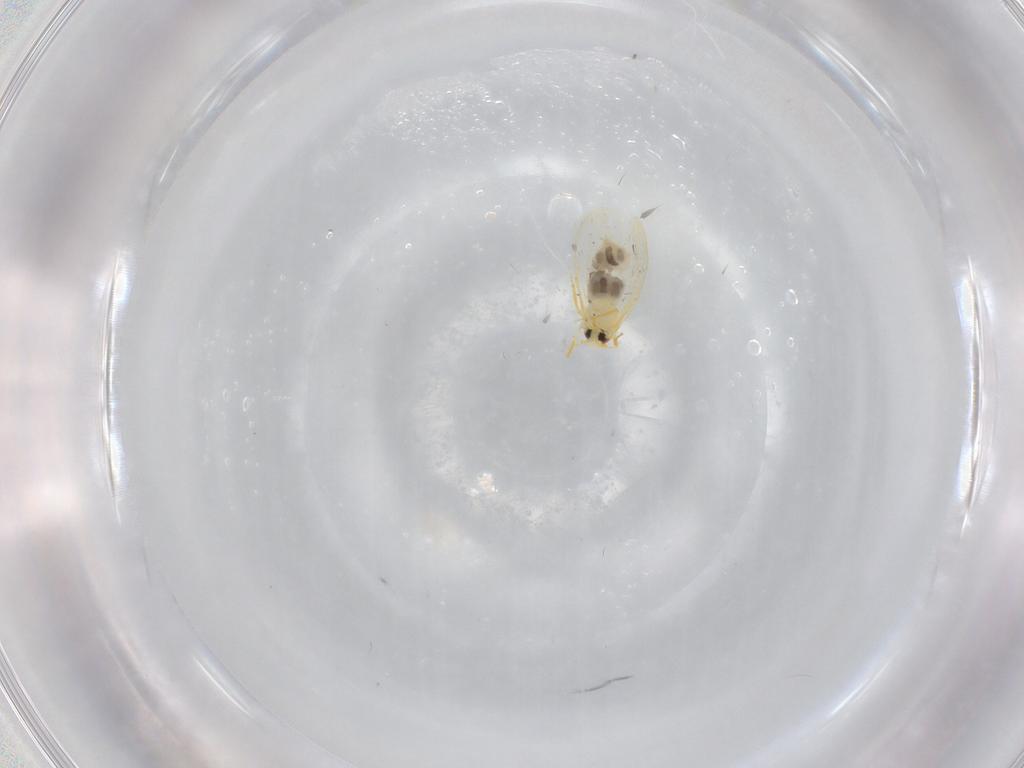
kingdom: Animalia
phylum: Arthropoda
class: Insecta
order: Hemiptera
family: Aleyrodidae
